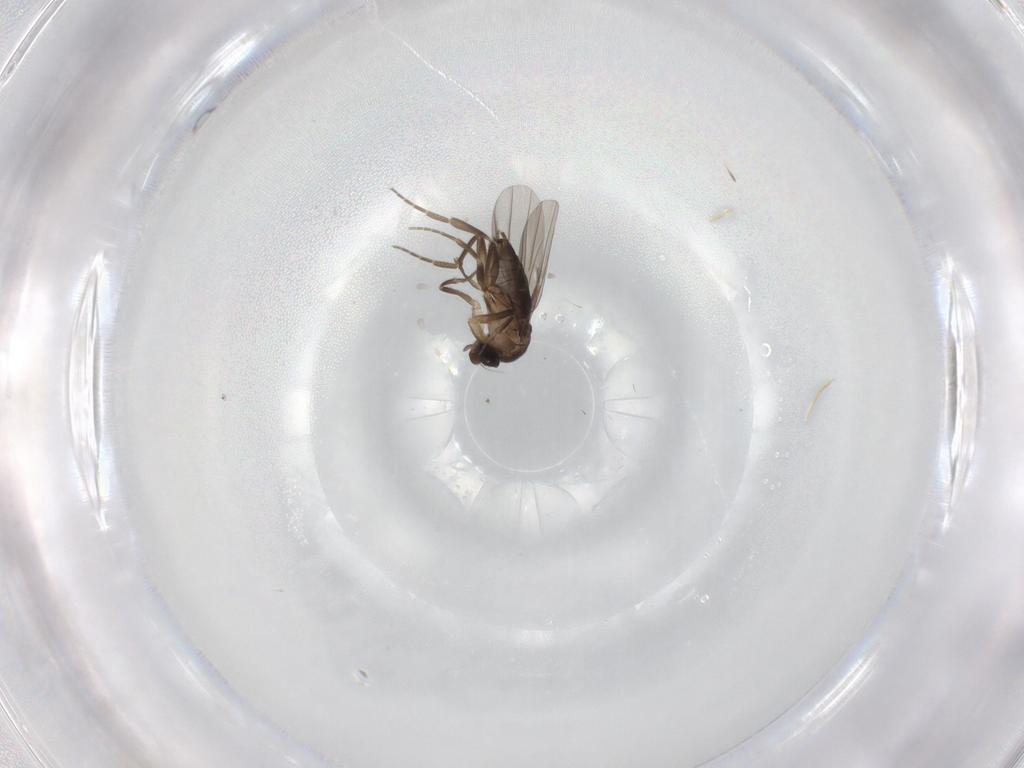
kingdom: Animalia
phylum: Arthropoda
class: Insecta
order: Diptera
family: Phoridae
